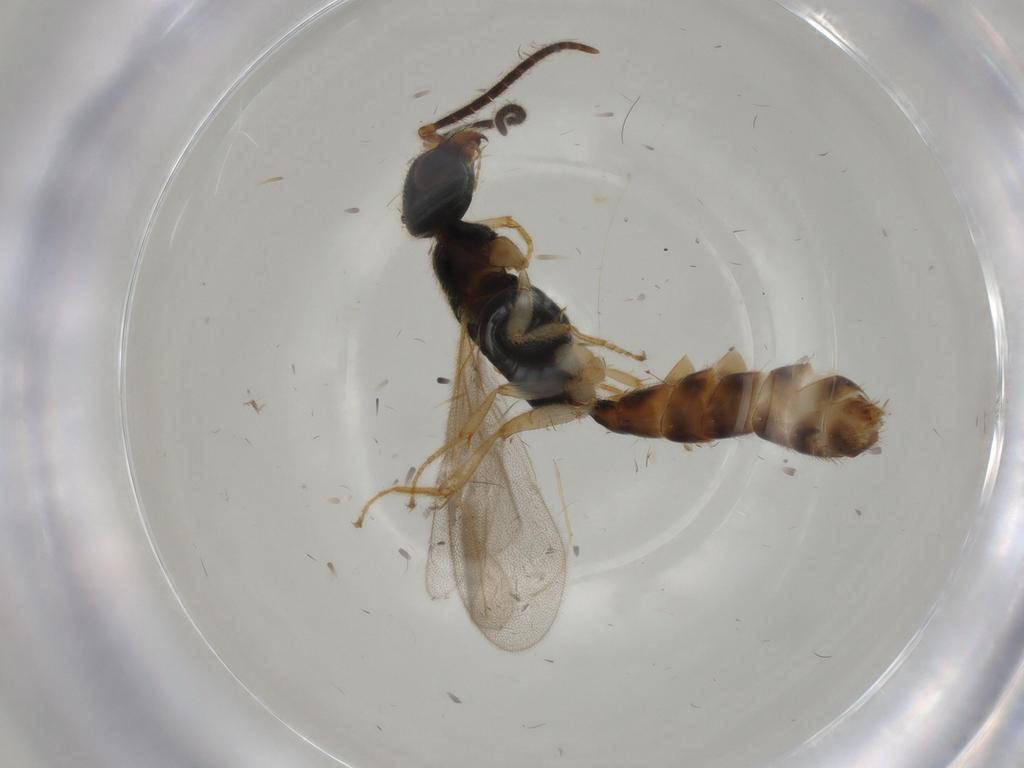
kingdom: Animalia
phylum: Arthropoda
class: Insecta
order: Hymenoptera
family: Bethylidae
